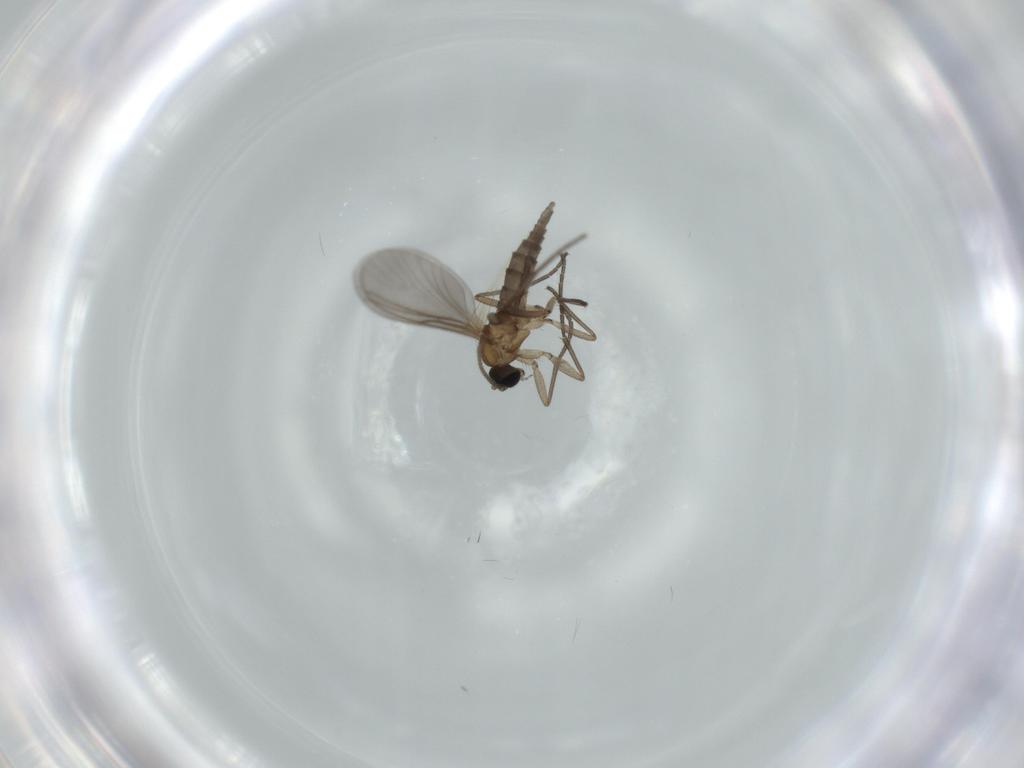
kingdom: Animalia
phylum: Arthropoda
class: Insecta
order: Diptera
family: Sciaridae
